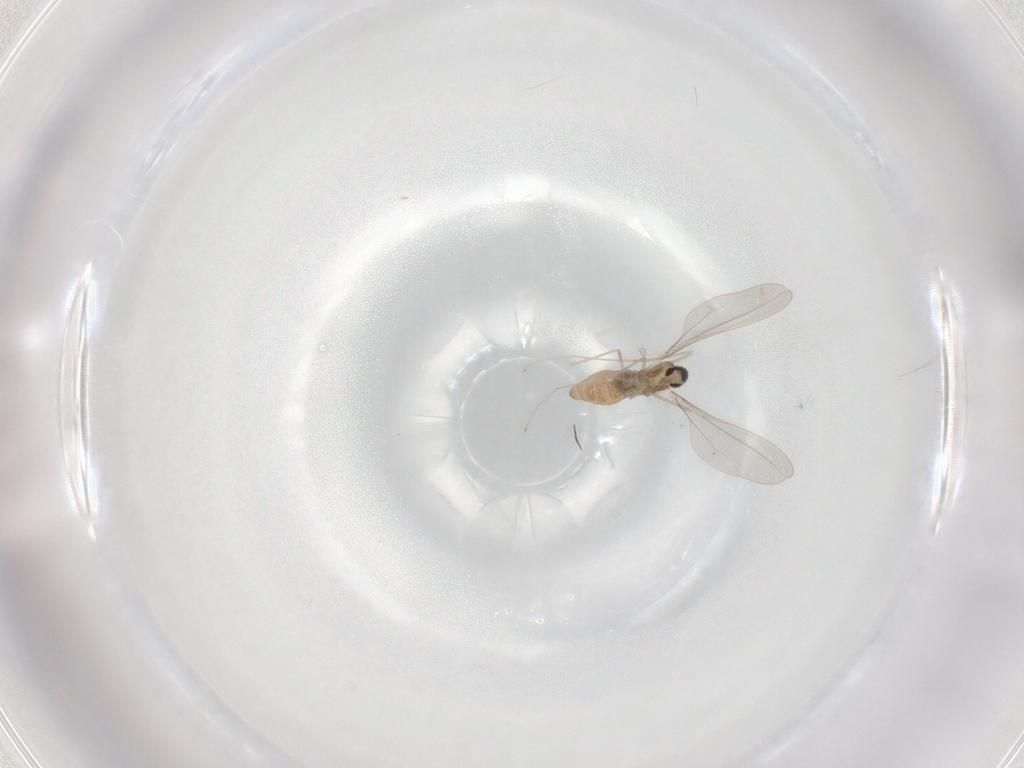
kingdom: Animalia
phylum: Arthropoda
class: Insecta
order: Diptera
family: Cecidomyiidae
